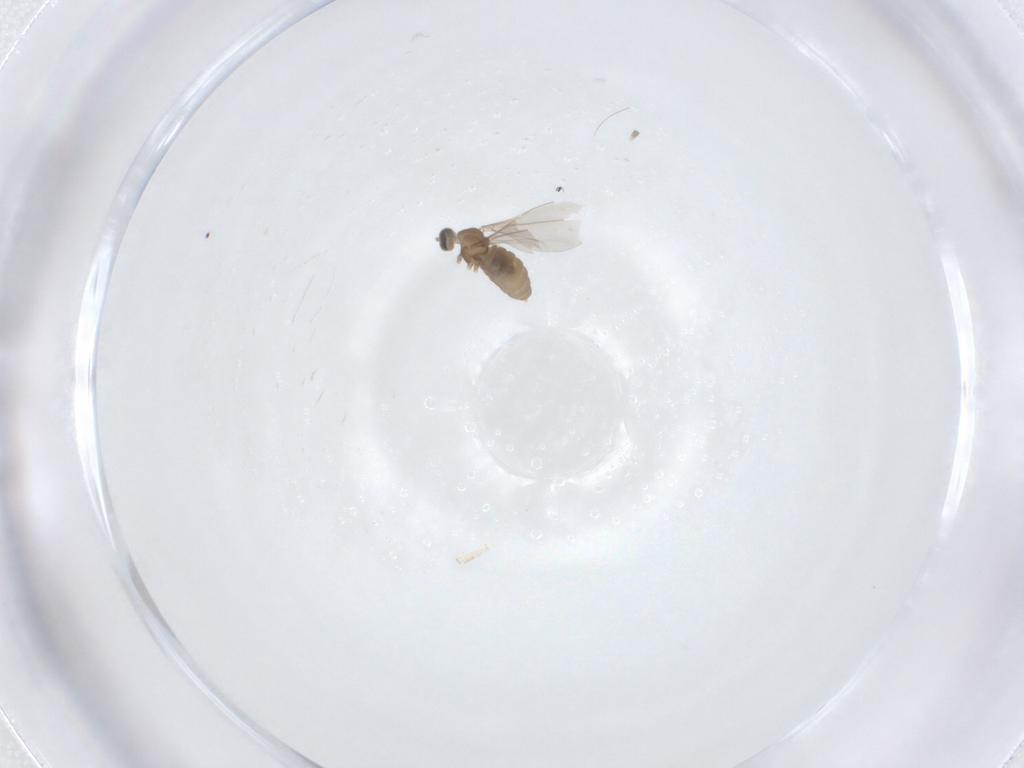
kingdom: Animalia
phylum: Arthropoda
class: Insecta
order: Diptera
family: Cecidomyiidae
